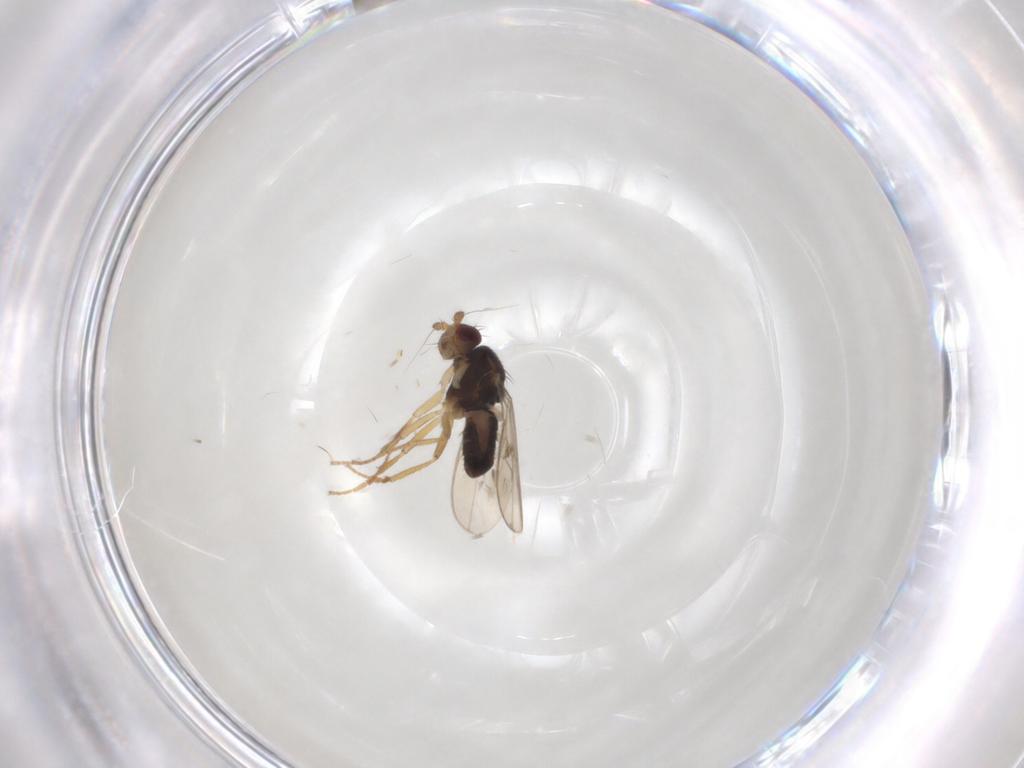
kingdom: Animalia
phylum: Arthropoda
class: Insecta
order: Diptera
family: Sphaeroceridae
